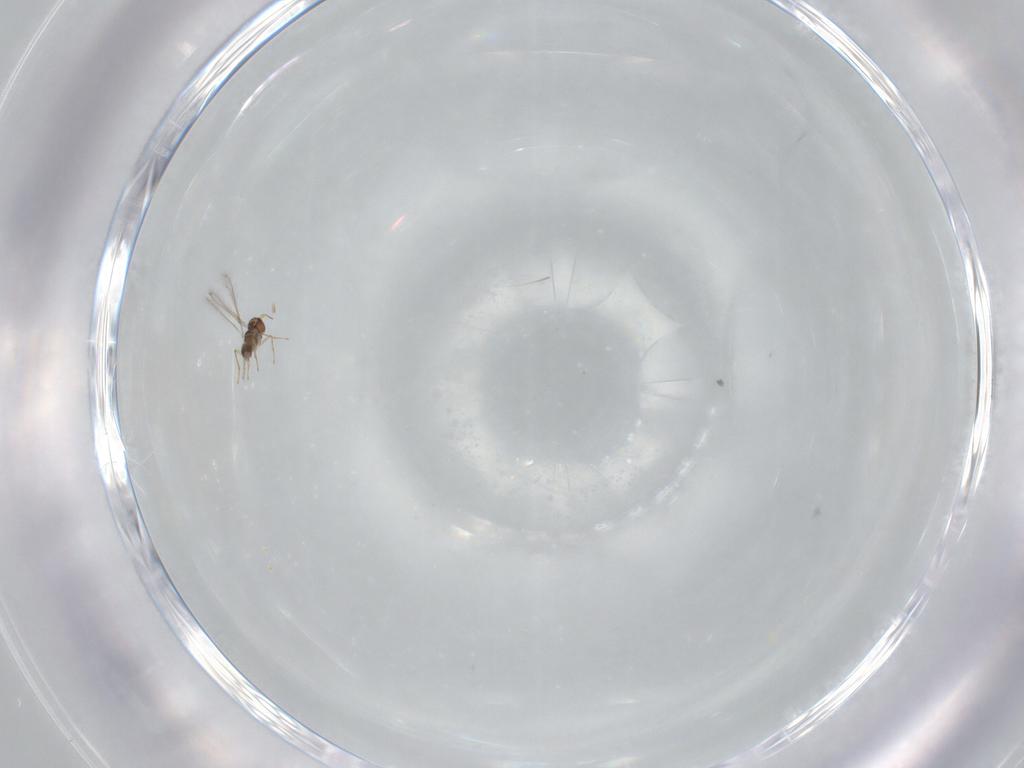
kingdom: Animalia
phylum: Arthropoda
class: Insecta
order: Hymenoptera
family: Mymaridae
